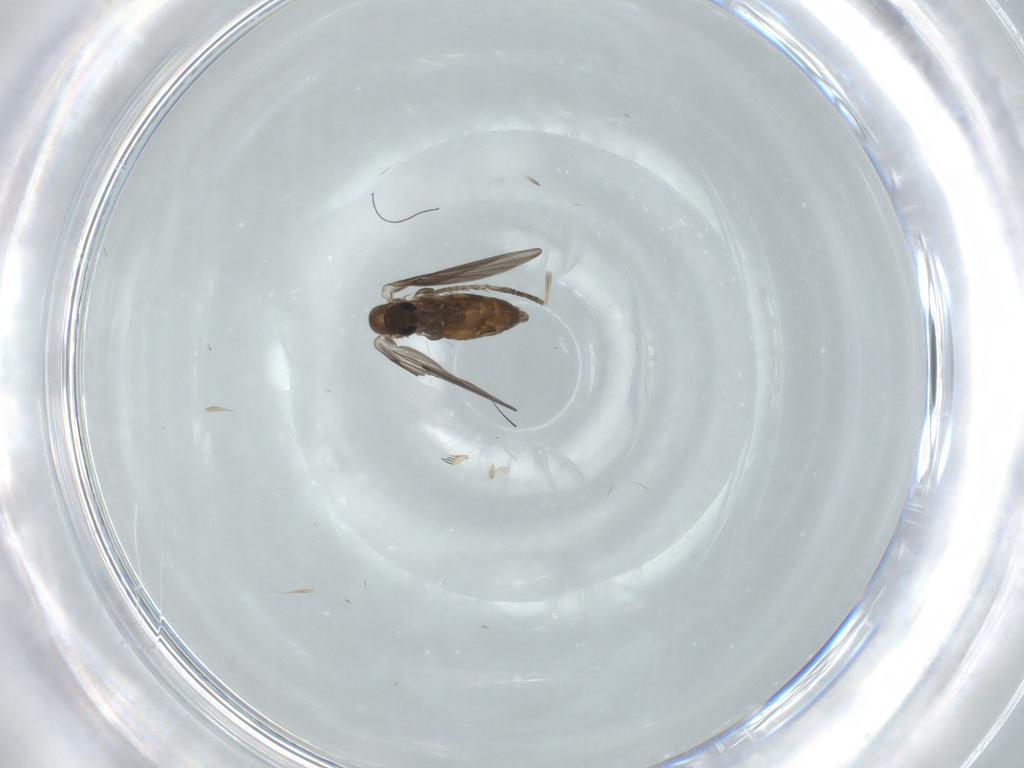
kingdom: Animalia
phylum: Arthropoda
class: Insecta
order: Diptera
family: Psychodidae
